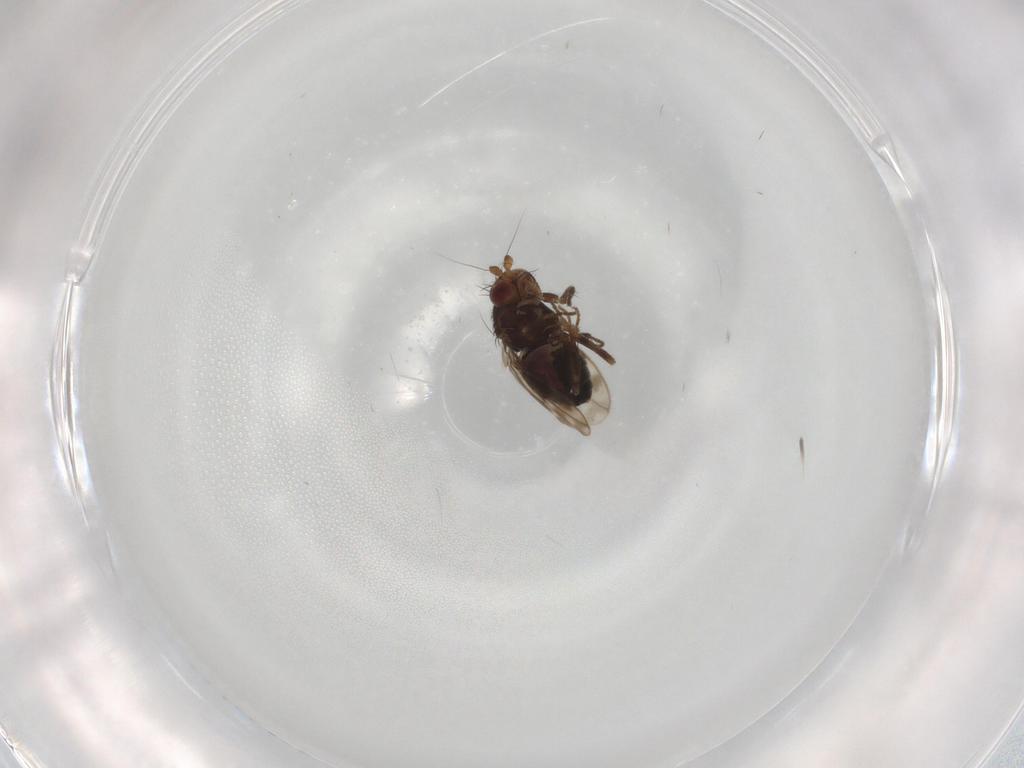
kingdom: Animalia
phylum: Arthropoda
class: Insecta
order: Diptera
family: Sphaeroceridae
